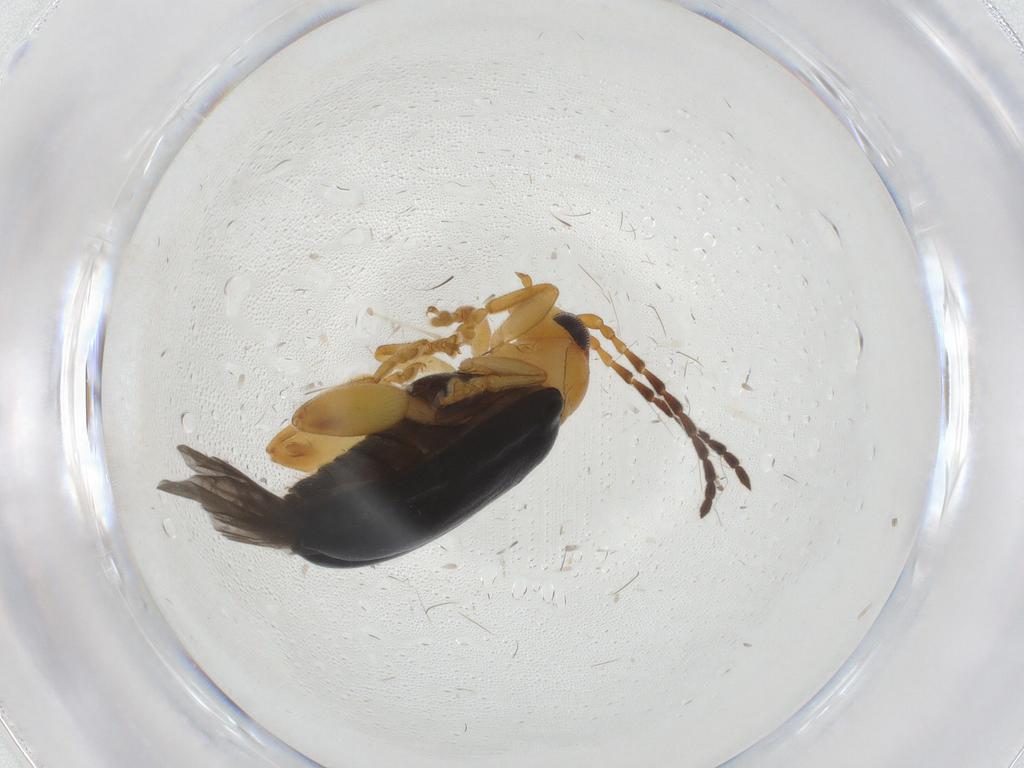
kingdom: Animalia
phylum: Arthropoda
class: Insecta
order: Coleoptera
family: Chrysomelidae
